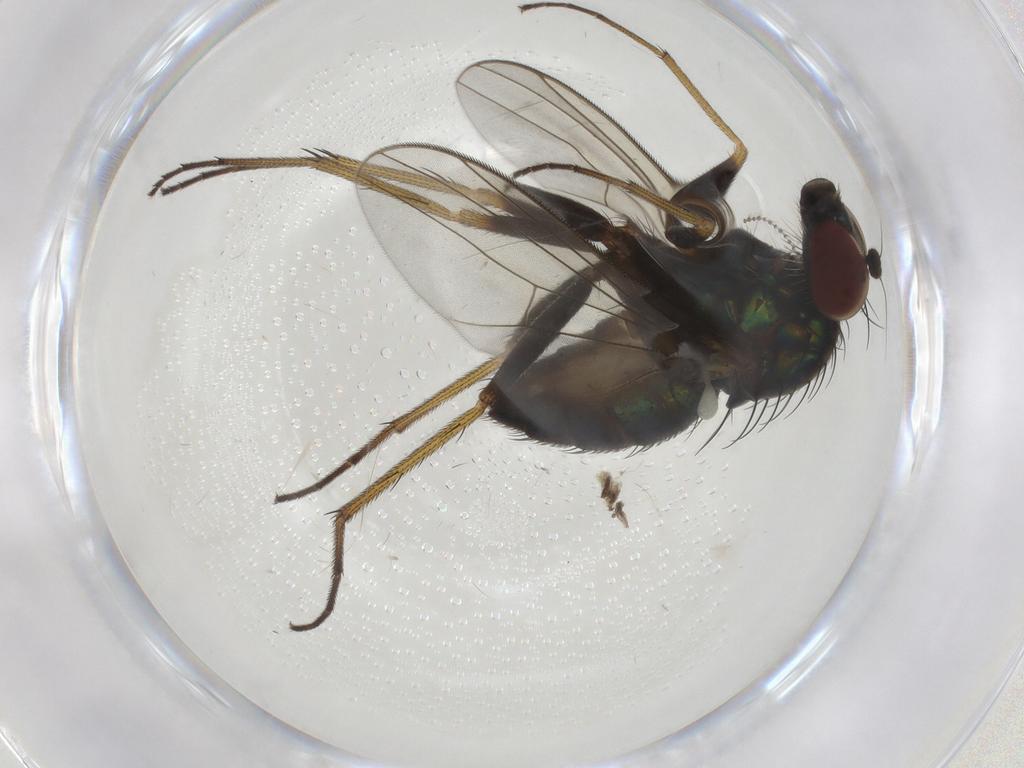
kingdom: Animalia
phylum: Arthropoda
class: Insecta
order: Diptera
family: Dolichopodidae
